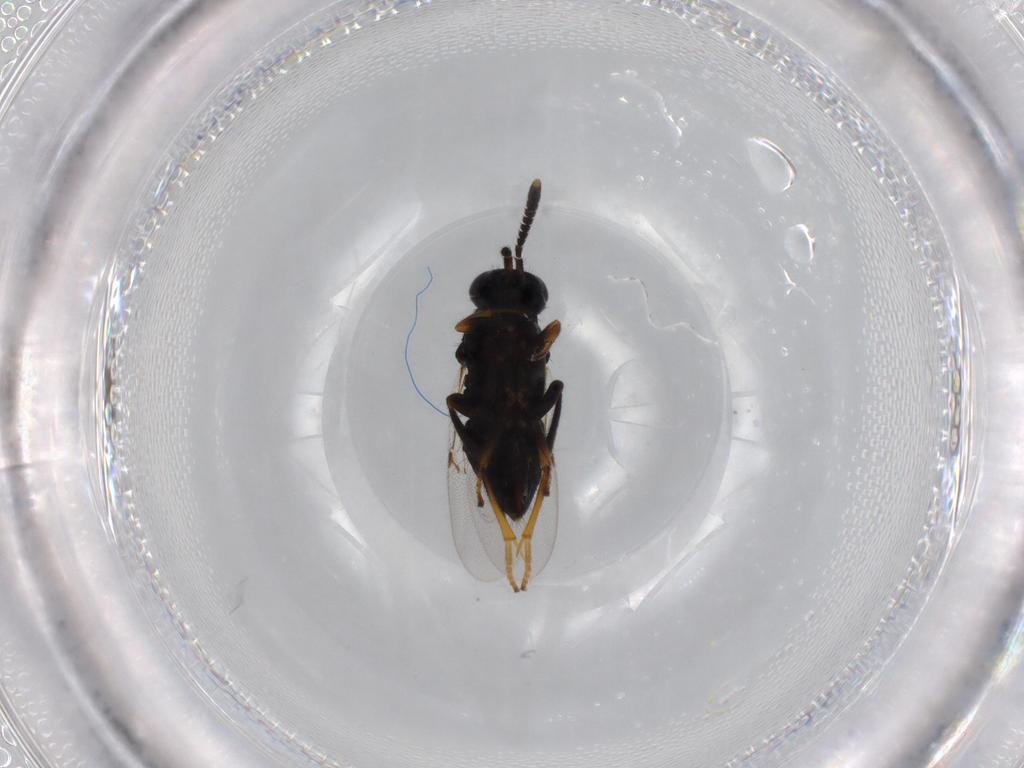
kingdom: Animalia
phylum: Arthropoda
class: Insecta
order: Hymenoptera
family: Encyrtidae
